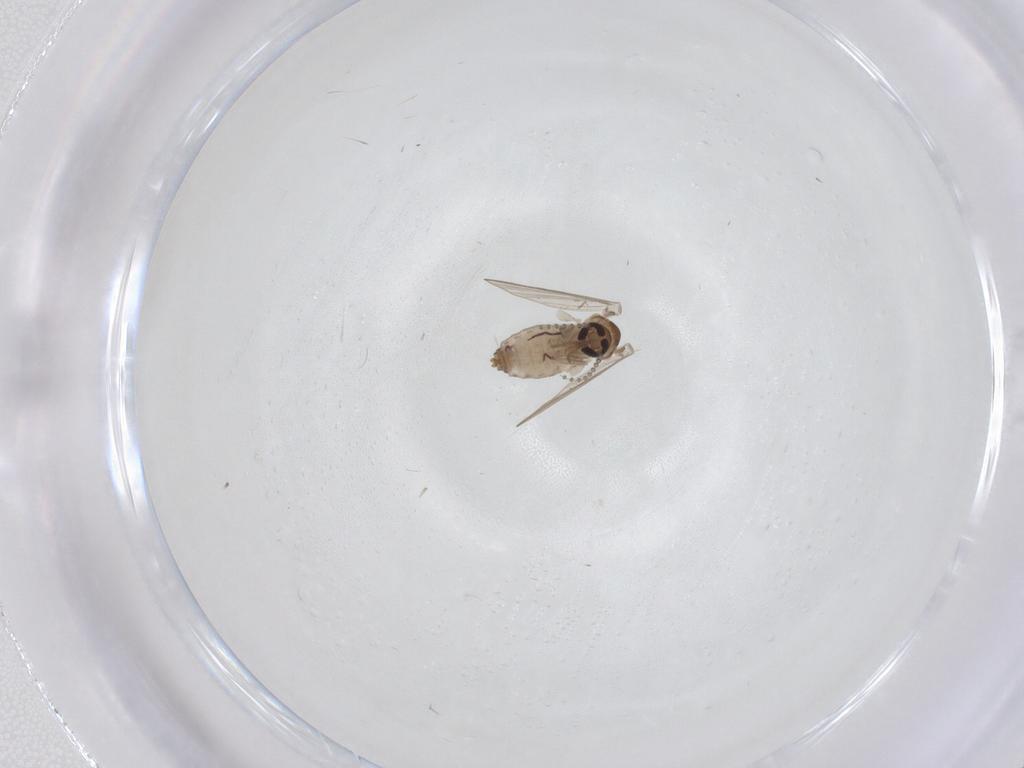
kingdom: Animalia
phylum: Arthropoda
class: Insecta
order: Diptera
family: Psychodidae
